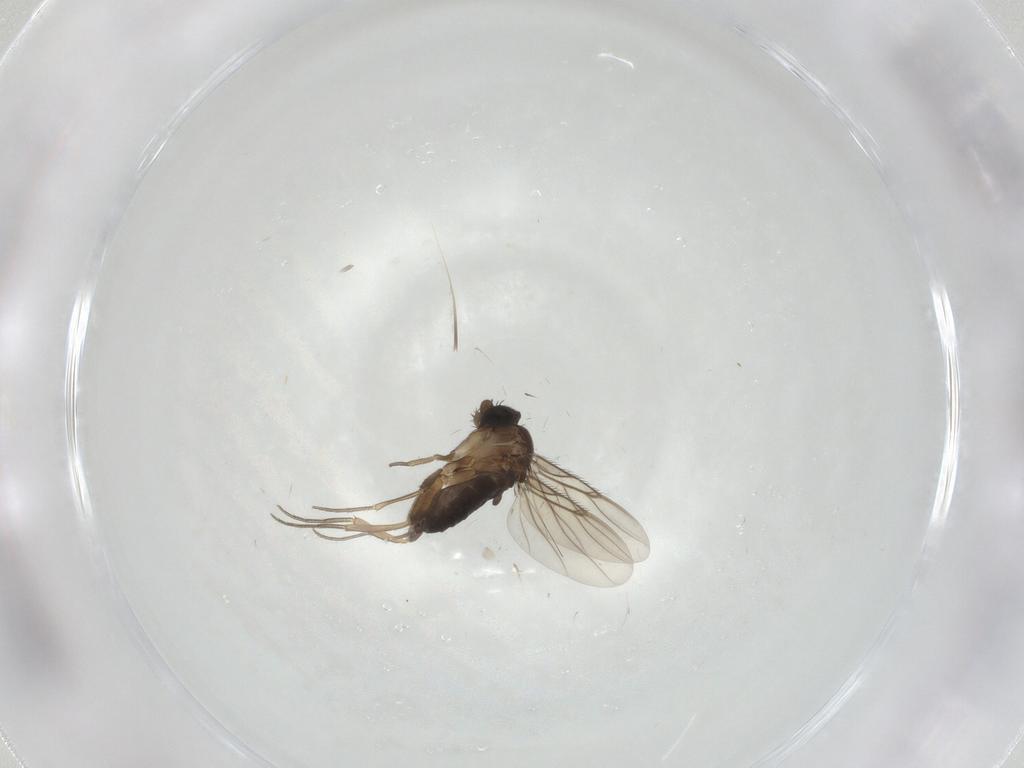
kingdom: Animalia
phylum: Arthropoda
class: Insecta
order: Diptera
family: Phoridae
